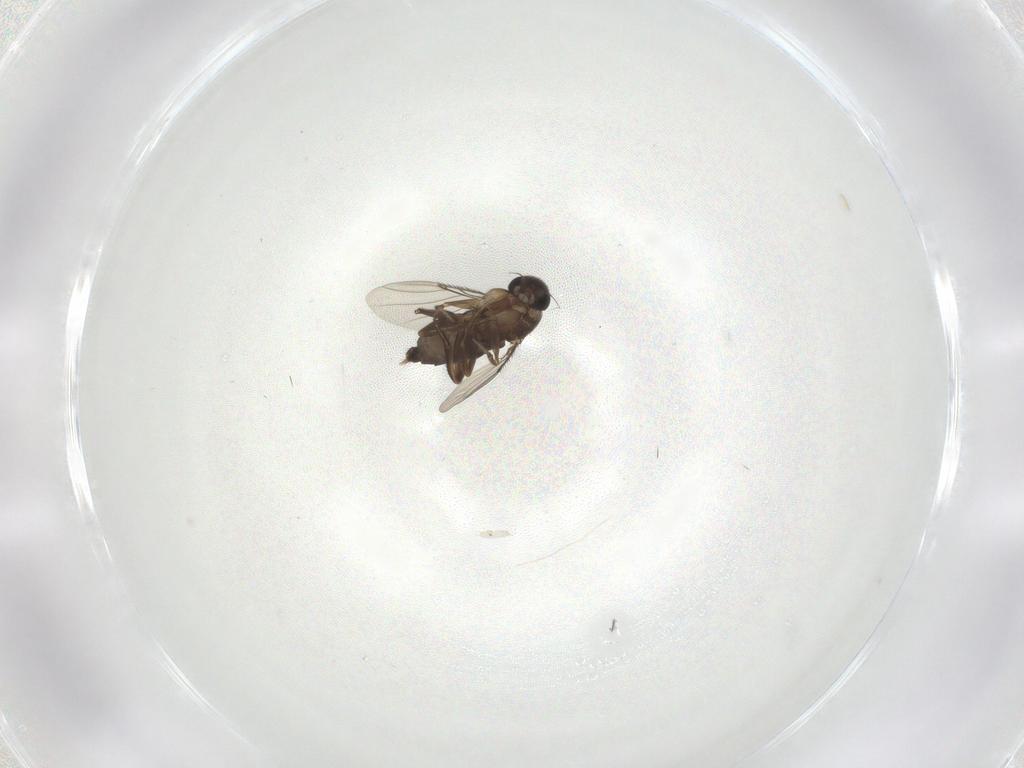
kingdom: Animalia
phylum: Arthropoda
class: Insecta
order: Diptera
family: Phoridae
